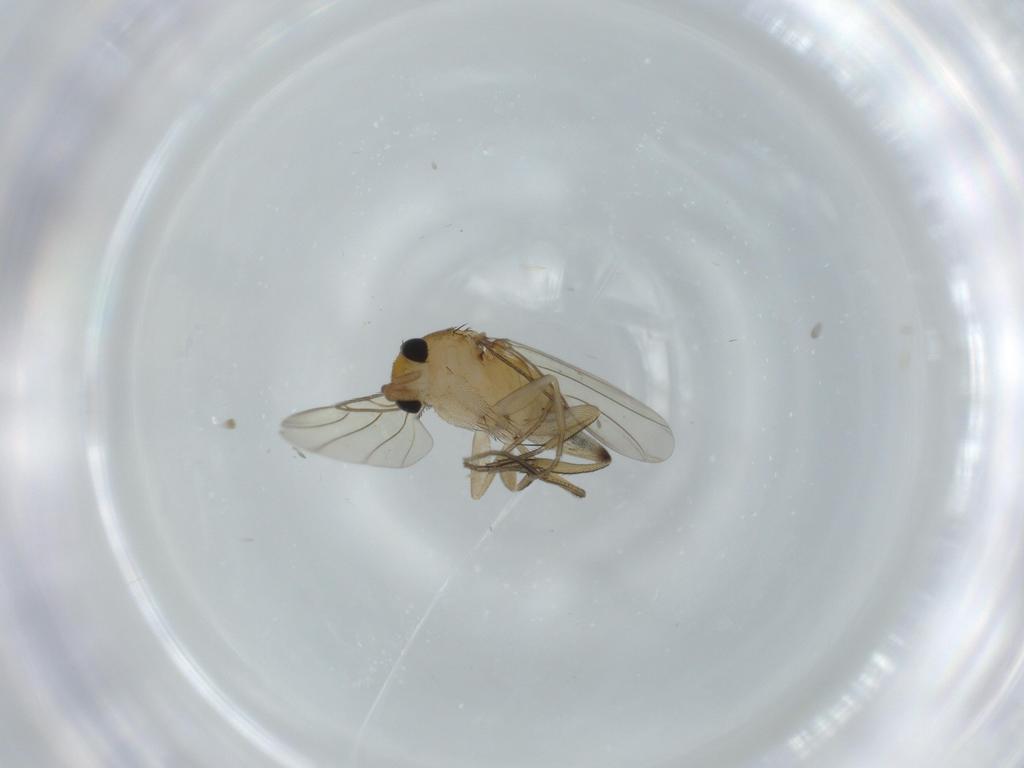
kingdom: Animalia
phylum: Arthropoda
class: Insecta
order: Diptera
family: Phoridae
